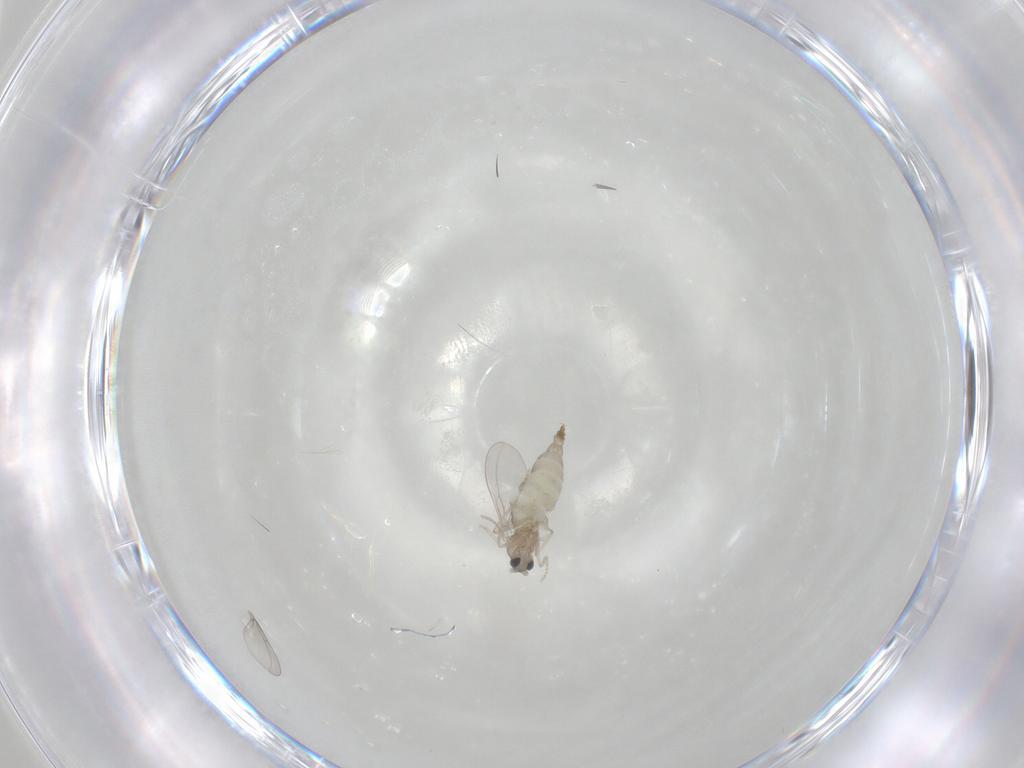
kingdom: Animalia
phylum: Arthropoda
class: Insecta
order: Diptera
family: Cecidomyiidae
